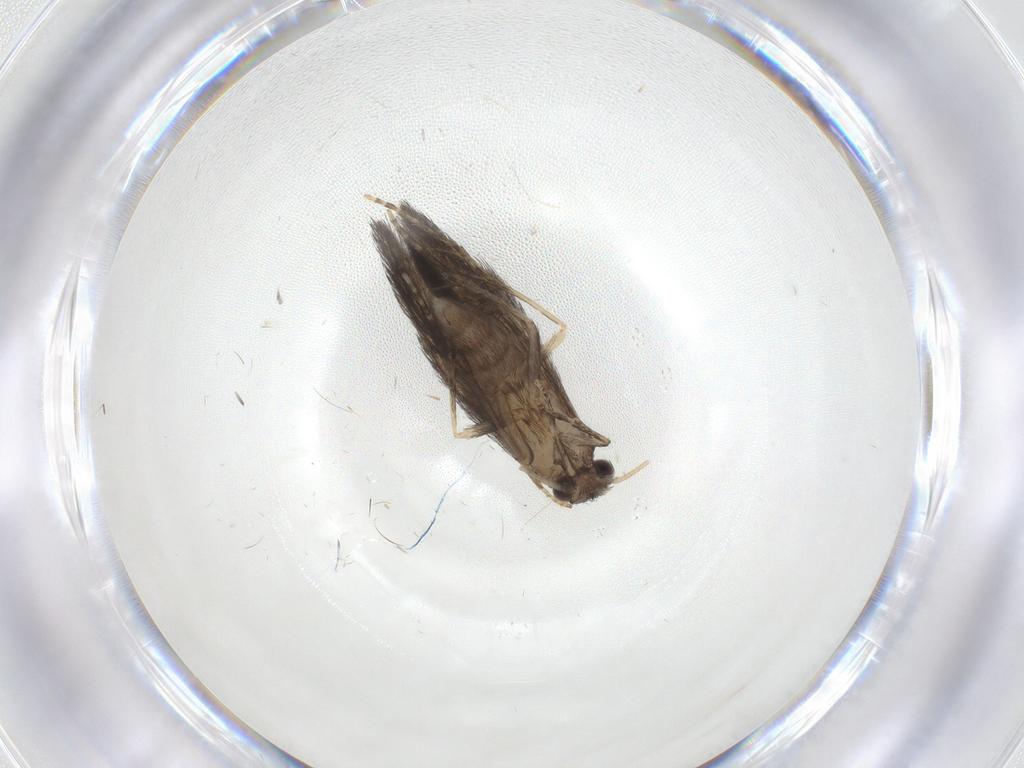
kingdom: Animalia
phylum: Arthropoda
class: Insecta
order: Trichoptera
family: Hydroptilidae
